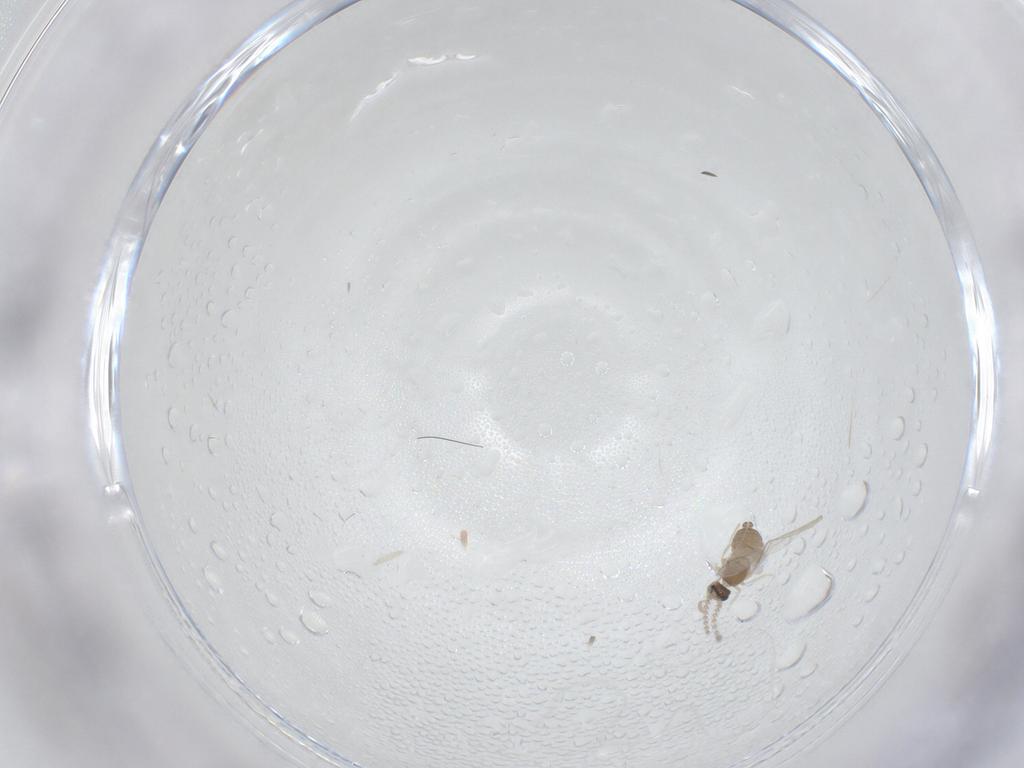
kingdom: Animalia
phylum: Arthropoda
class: Insecta
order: Diptera
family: Cecidomyiidae
